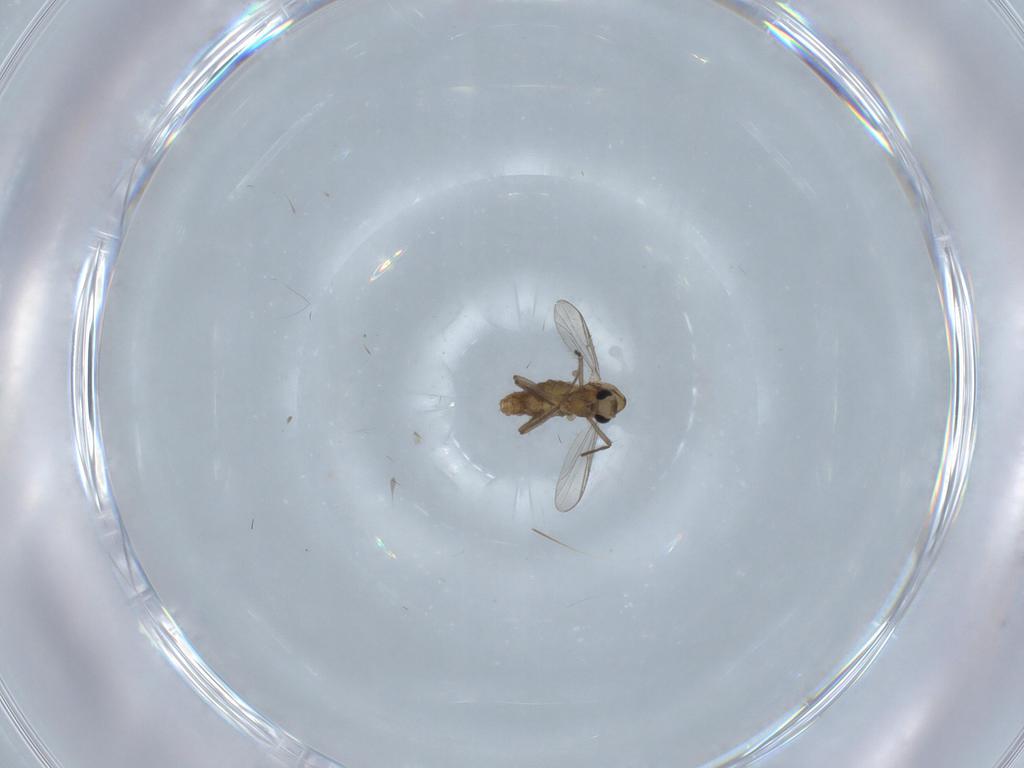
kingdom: Animalia
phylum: Arthropoda
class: Insecta
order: Diptera
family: Chironomidae
